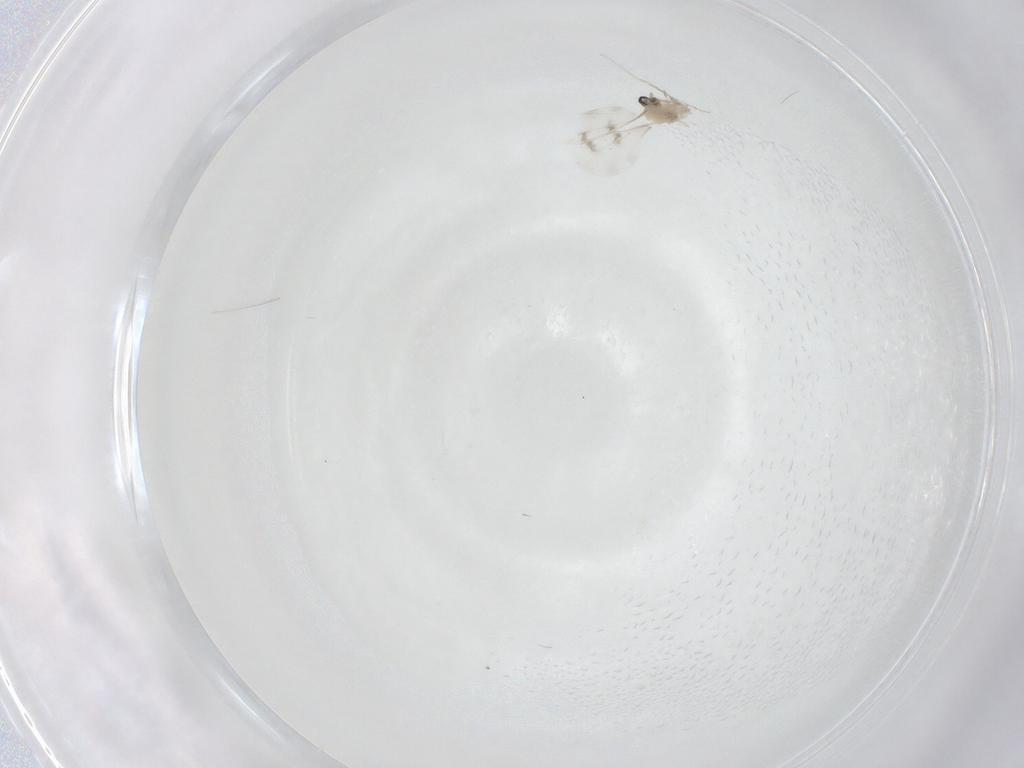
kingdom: Animalia
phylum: Arthropoda
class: Insecta
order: Diptera
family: Cecidomyiidae
